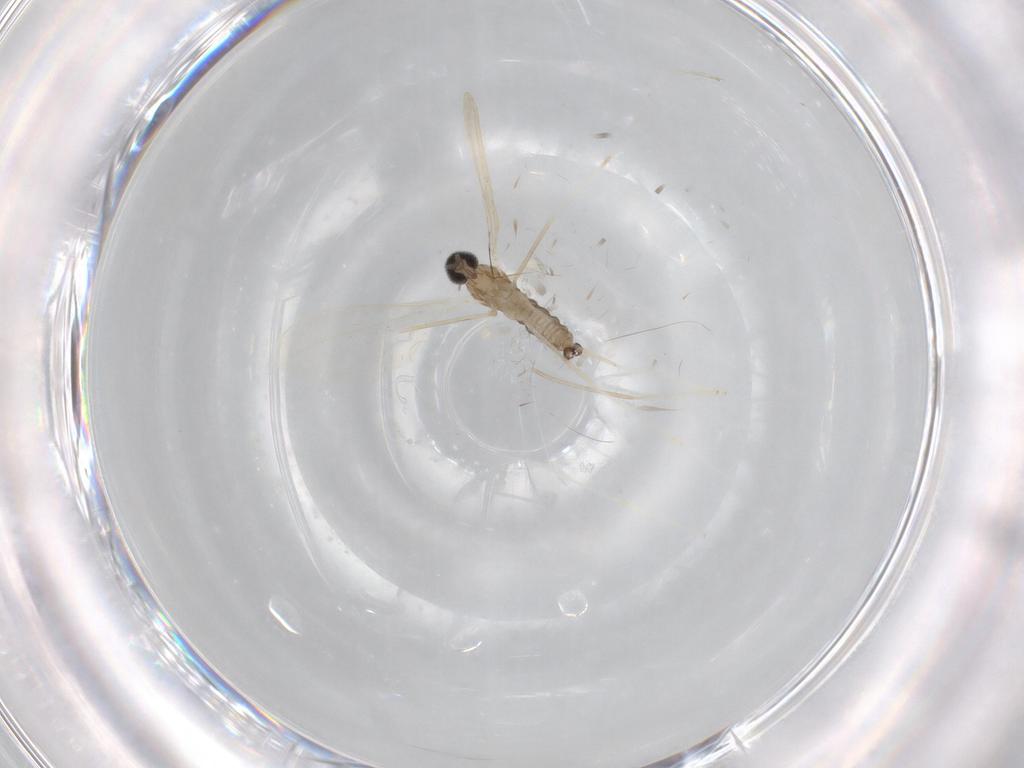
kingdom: Animalia
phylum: Arthropoda
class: Insecta
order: Diptera
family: Cecidomyiidae
